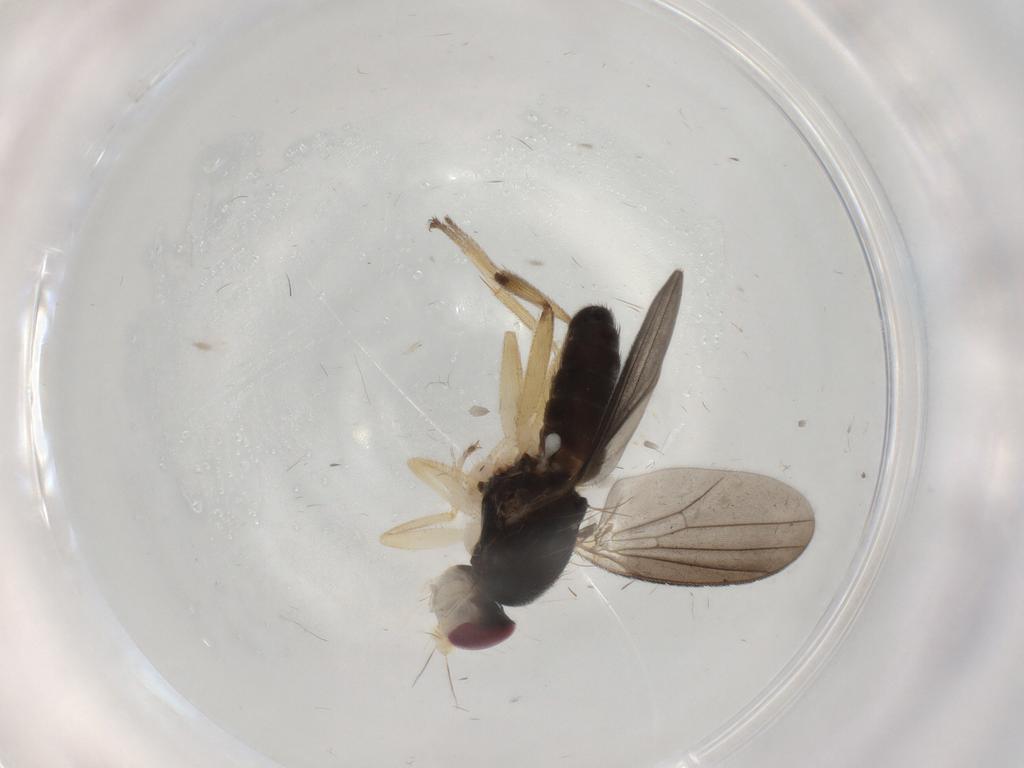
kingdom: Animalia
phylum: Arthropoda
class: Insecta
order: Diptera
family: Clusiidae
